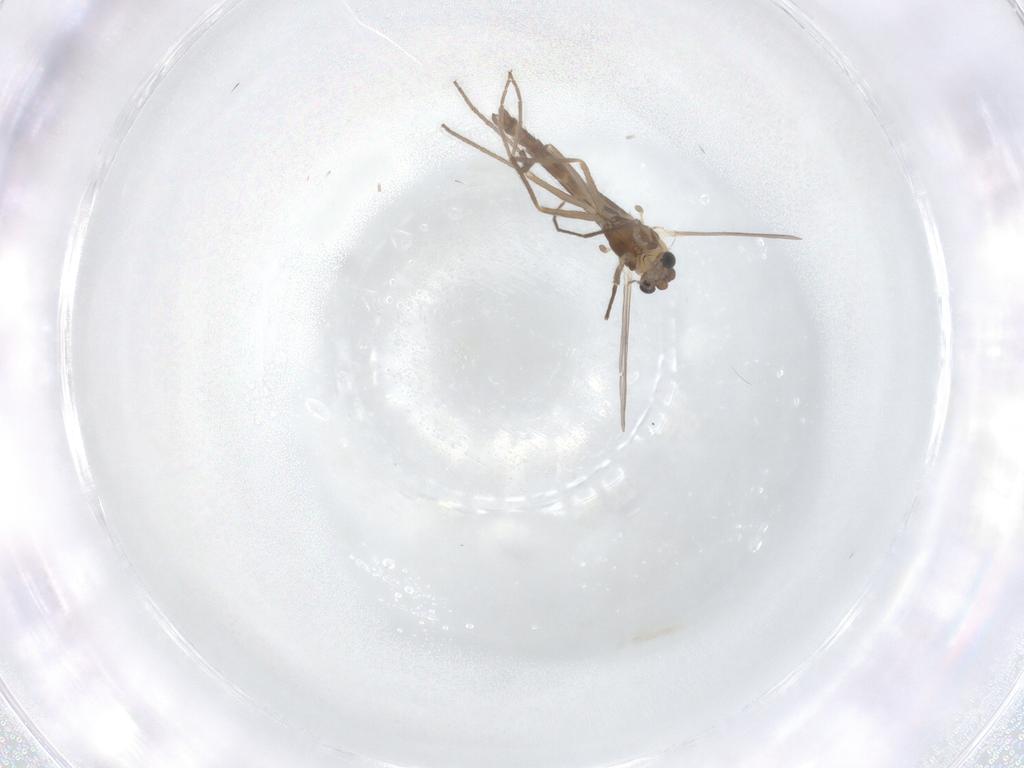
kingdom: Animalia
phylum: Arthropoda
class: Insecta
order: Diptera
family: Chironomidae
